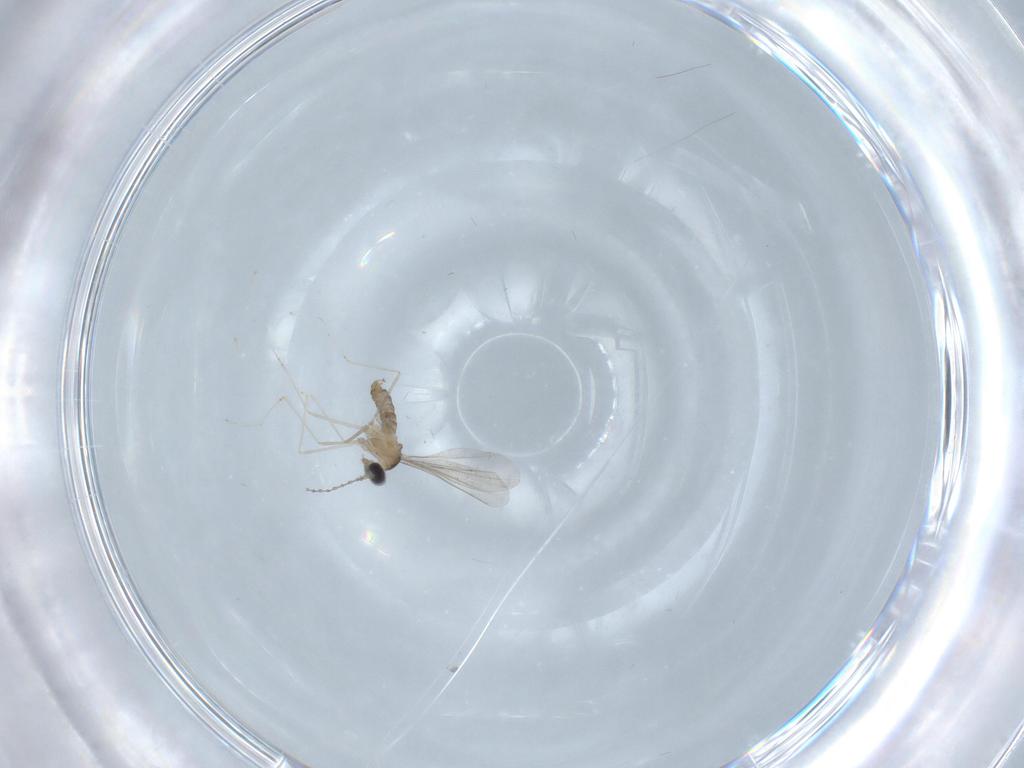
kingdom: Animalia
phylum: Arthropoda
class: Insecta
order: Diptera
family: Cecidomyiidae
